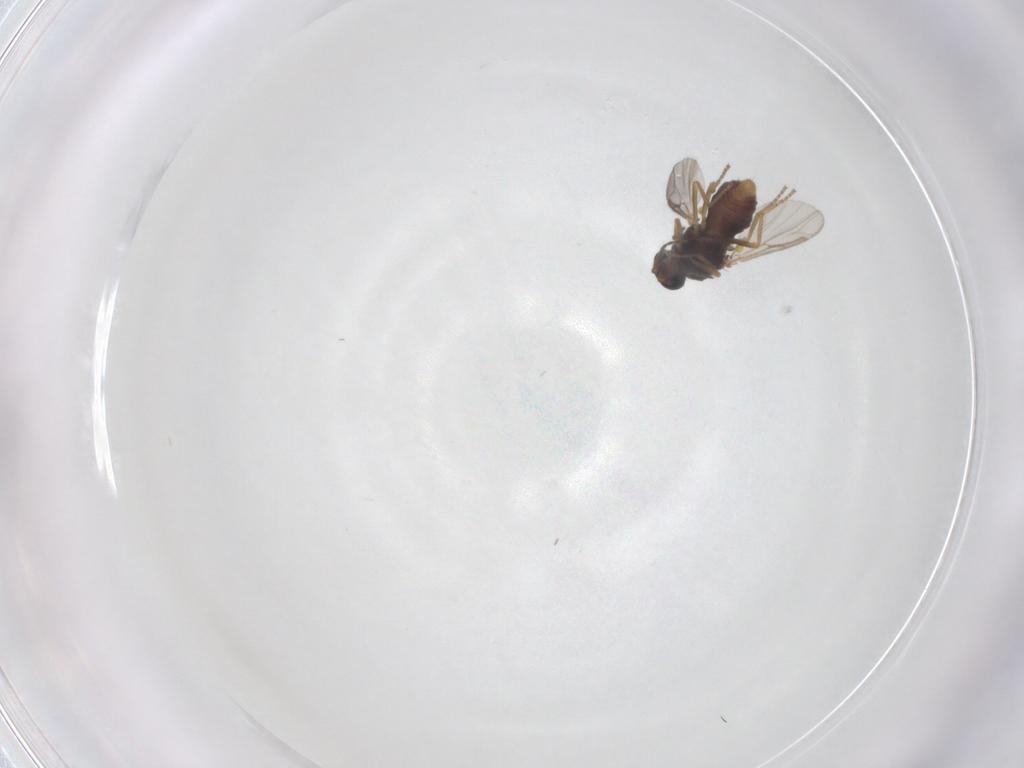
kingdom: Animalia
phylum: Arthropoda
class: Insecta
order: Diptera
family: Ceratopogonidae
